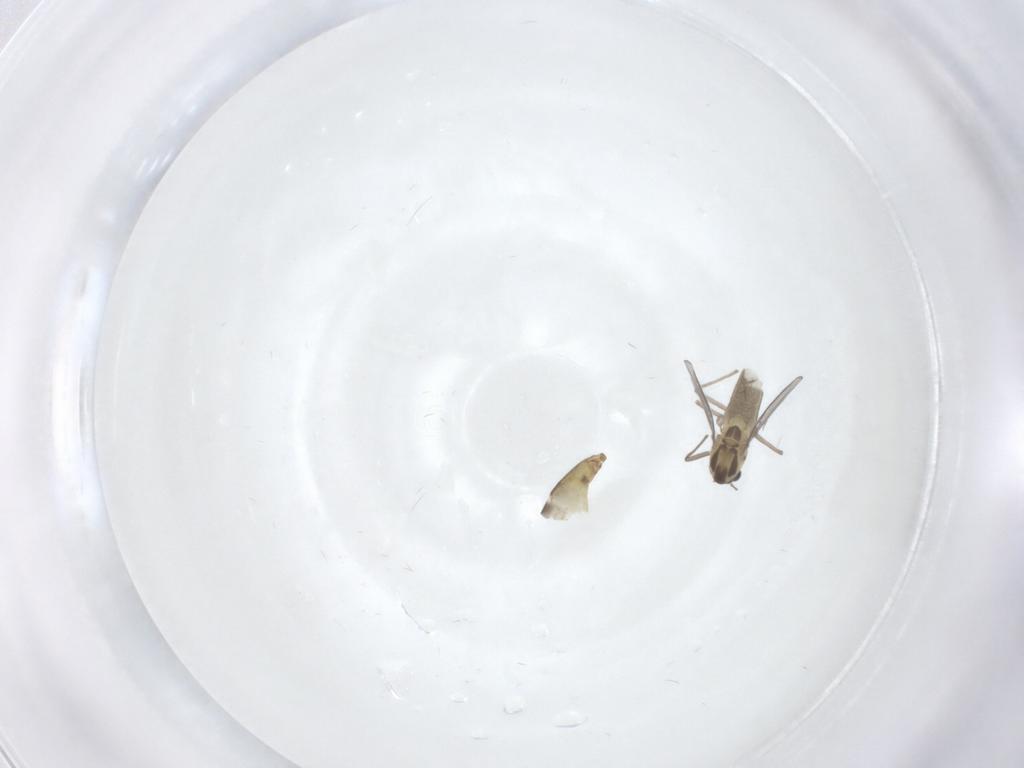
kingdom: Animalia
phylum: Arthropoda
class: Insecta
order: Diptera
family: Chironomidae
